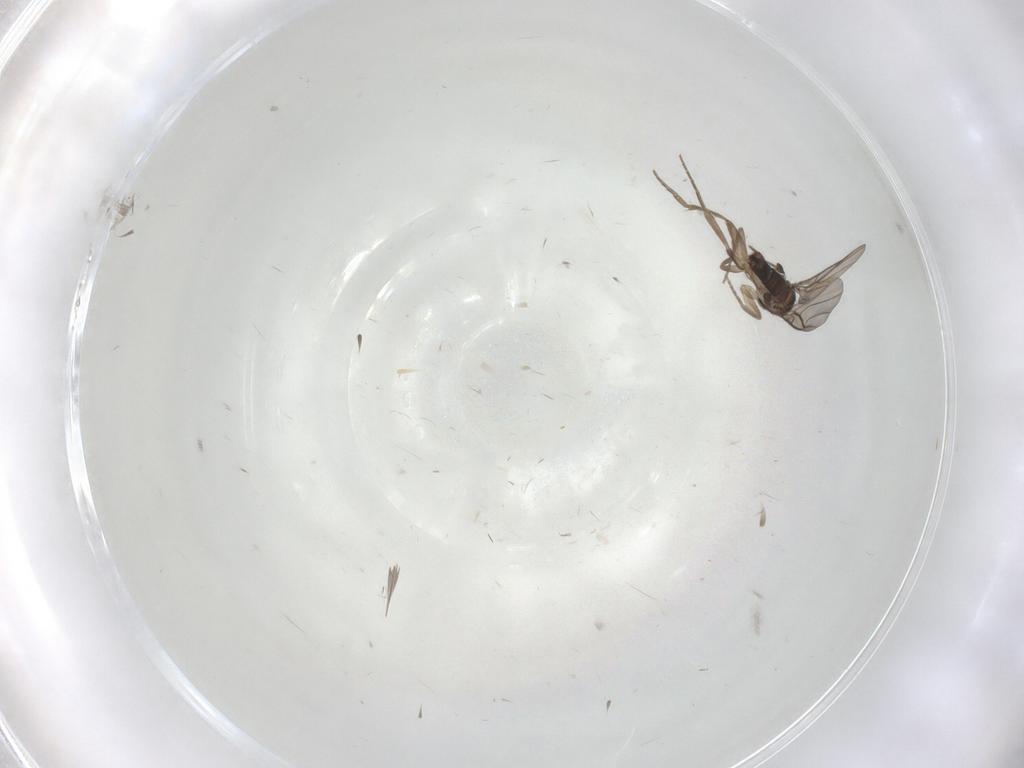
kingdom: Animalia
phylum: Arthropoda
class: Insecta
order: Diptera
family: Phoridae
